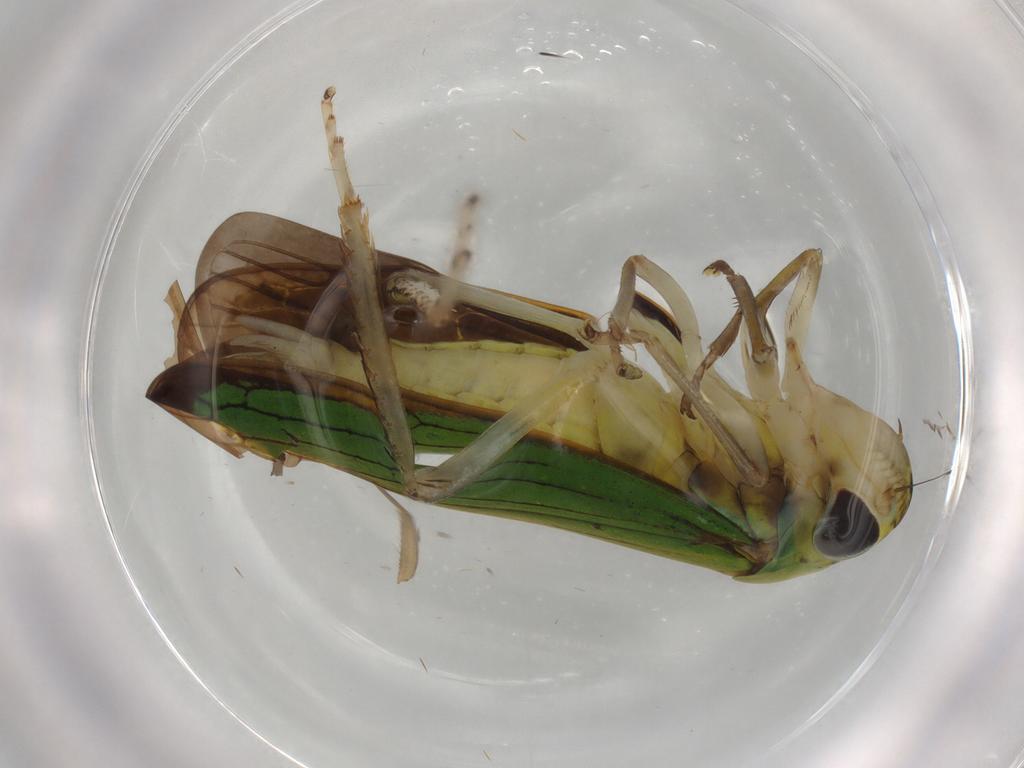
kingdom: Animalia
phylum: Arthropoda
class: Insecta
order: Hemiptera
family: Cicadellidae
